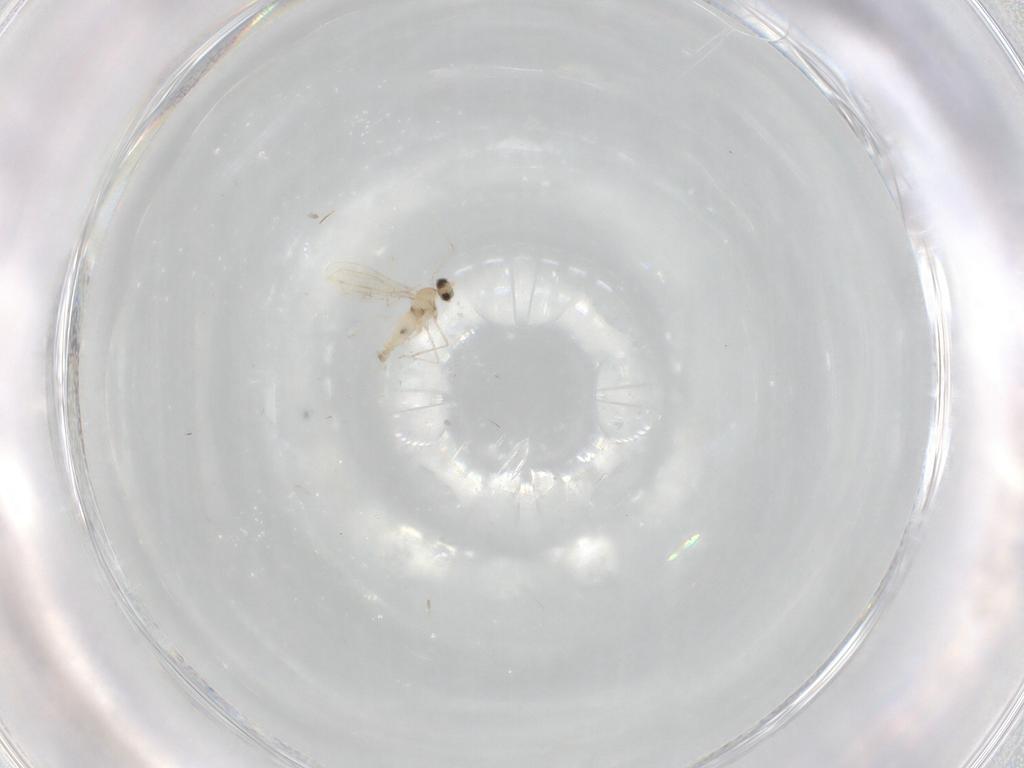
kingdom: Animalia
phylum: Arthropoda
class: Insecta
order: Diptera
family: Cecidomyiidae
